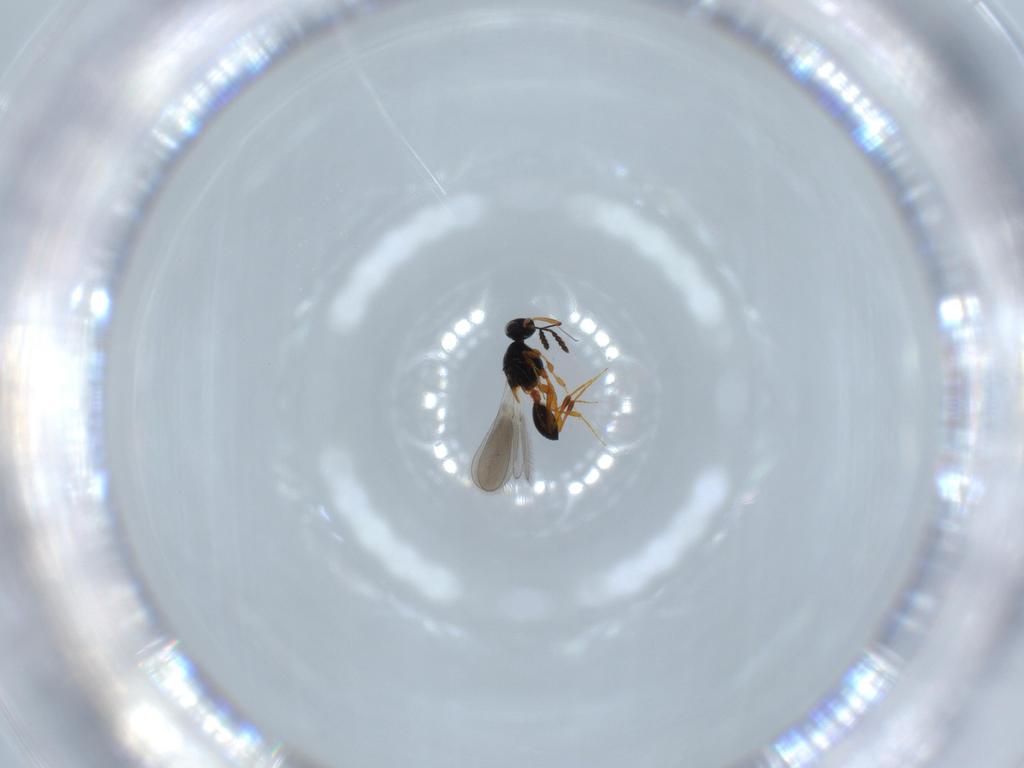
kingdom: Animalia
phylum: Arthropoda
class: Insecta
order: Hymenoptera
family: Platygastridae
